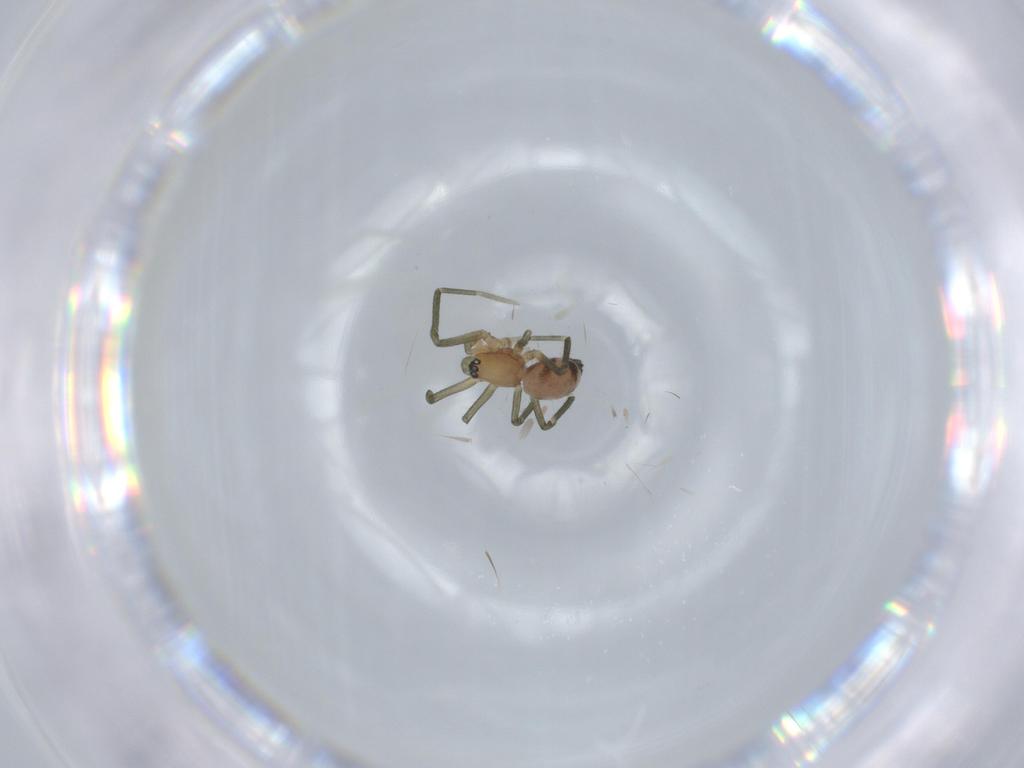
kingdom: Animalia
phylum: Arthropoda
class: Arachnida
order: Araneae
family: Linyphiidae
